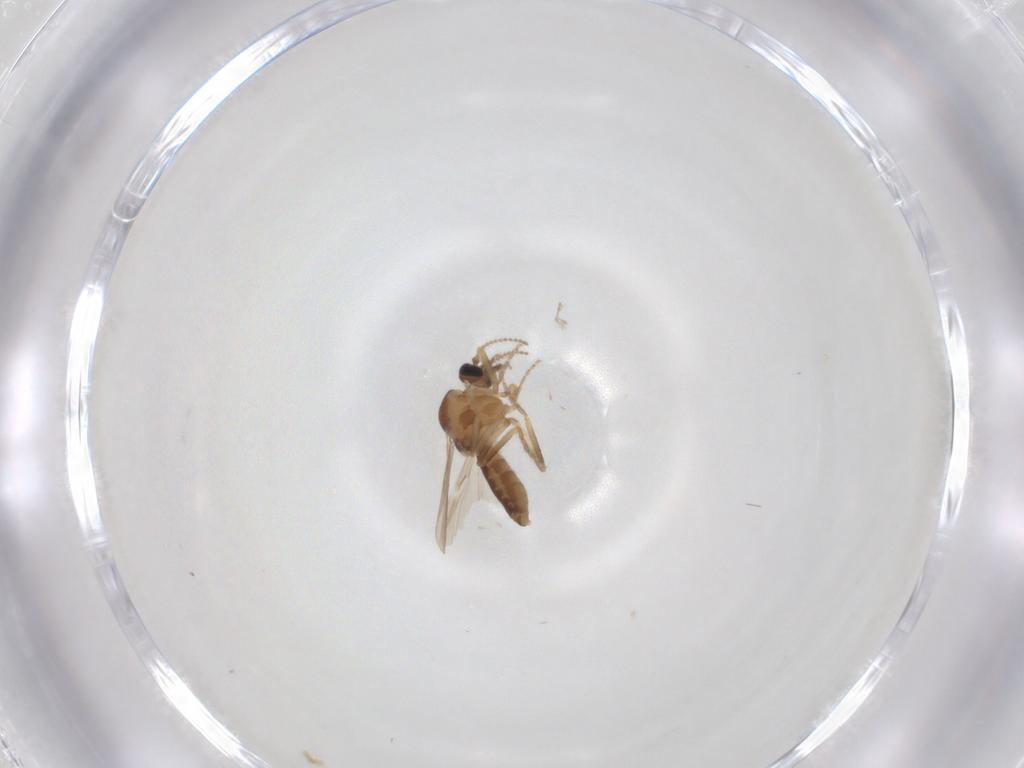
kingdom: Animalia
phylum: Arthropoda
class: Insecta
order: Diptera
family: Ceratopogonidae
